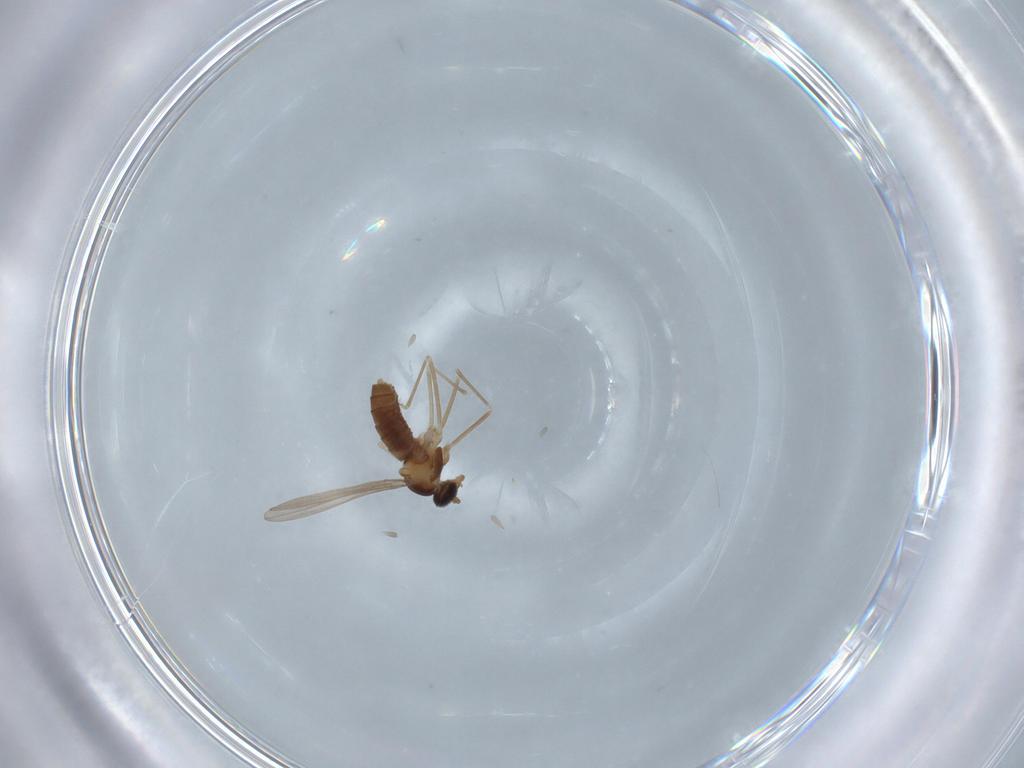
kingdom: Animalia
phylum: Arthropoda
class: Insecta
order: Diptera
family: Cecidomyiidae
